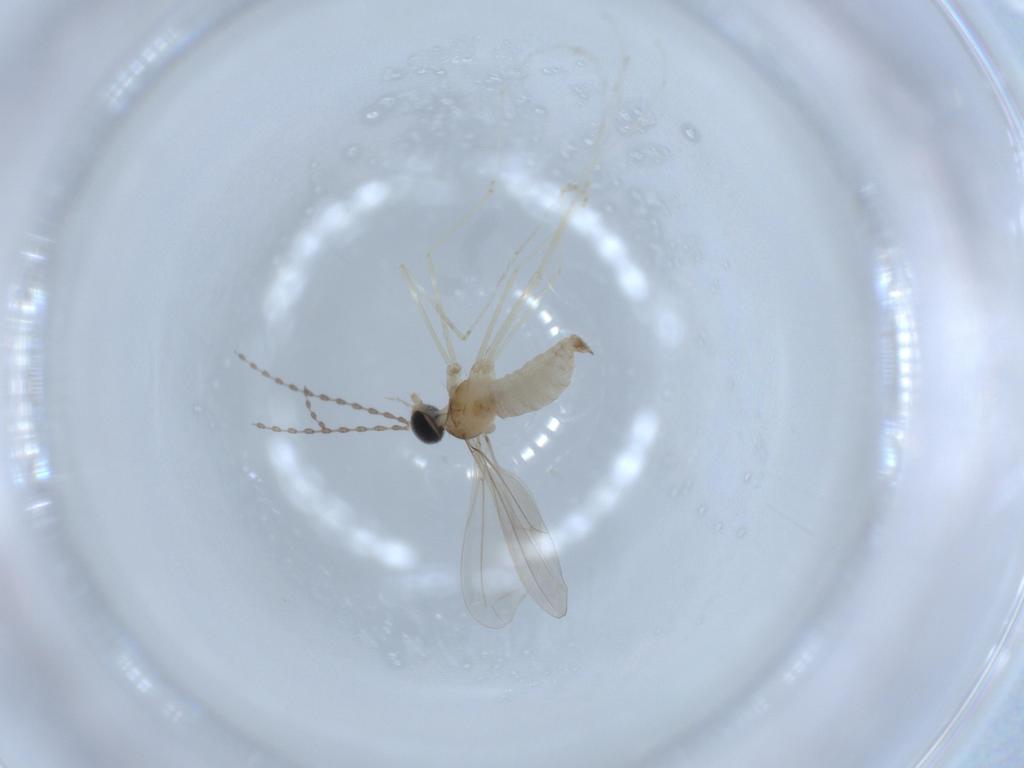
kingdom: Animalia
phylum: Arthropoda
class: Insecta
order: Diptera
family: Cecidomyiidae
